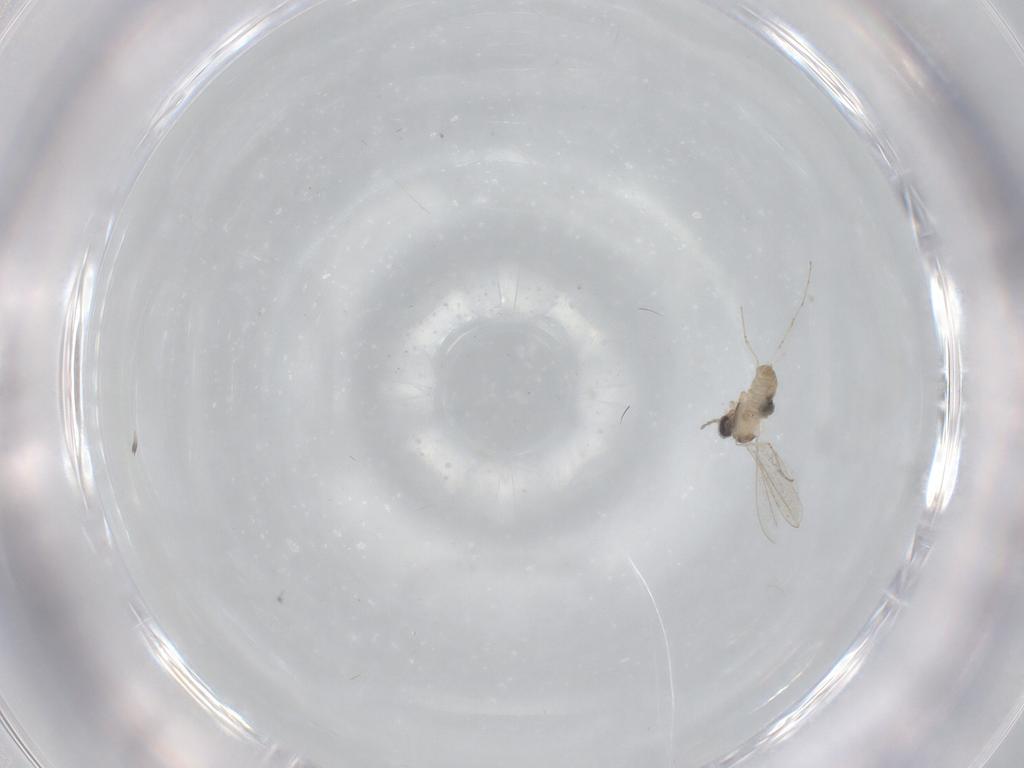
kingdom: Animalia
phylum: Arthropoda
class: Insecta
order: Diptera
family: Cecidomyiidae
